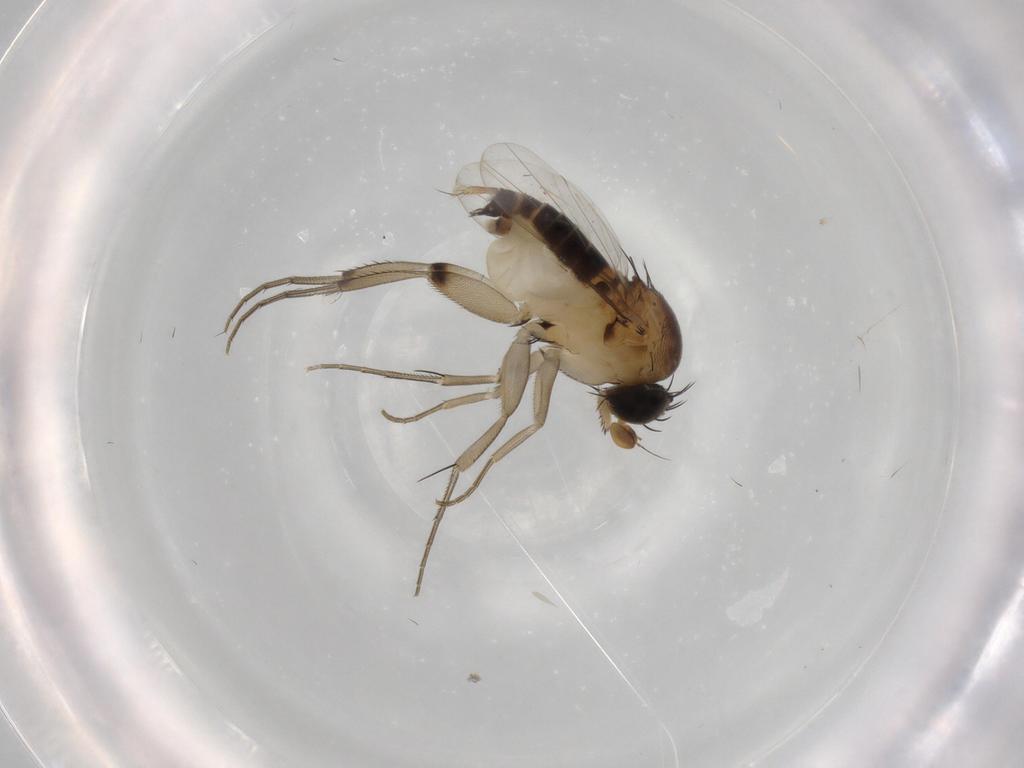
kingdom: Animalia
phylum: Arthropoda
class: Insecta
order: Diptera
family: Phoridae
